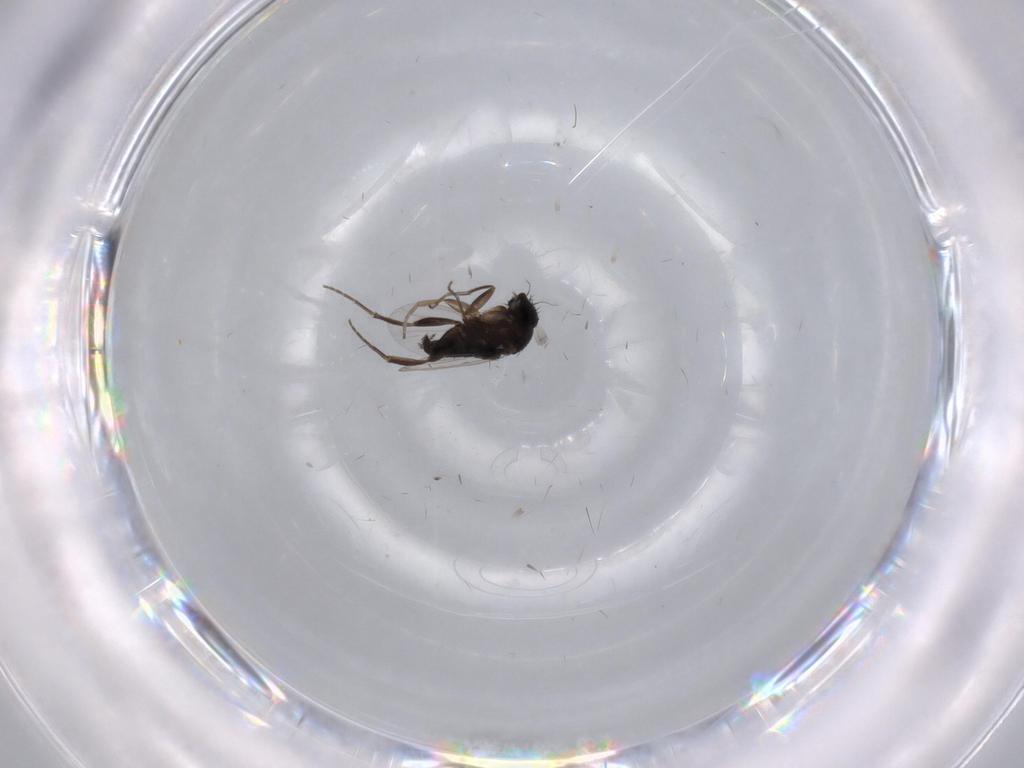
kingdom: Animalia
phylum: Arthropoda
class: Insecta
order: Diptera
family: Phoridae
